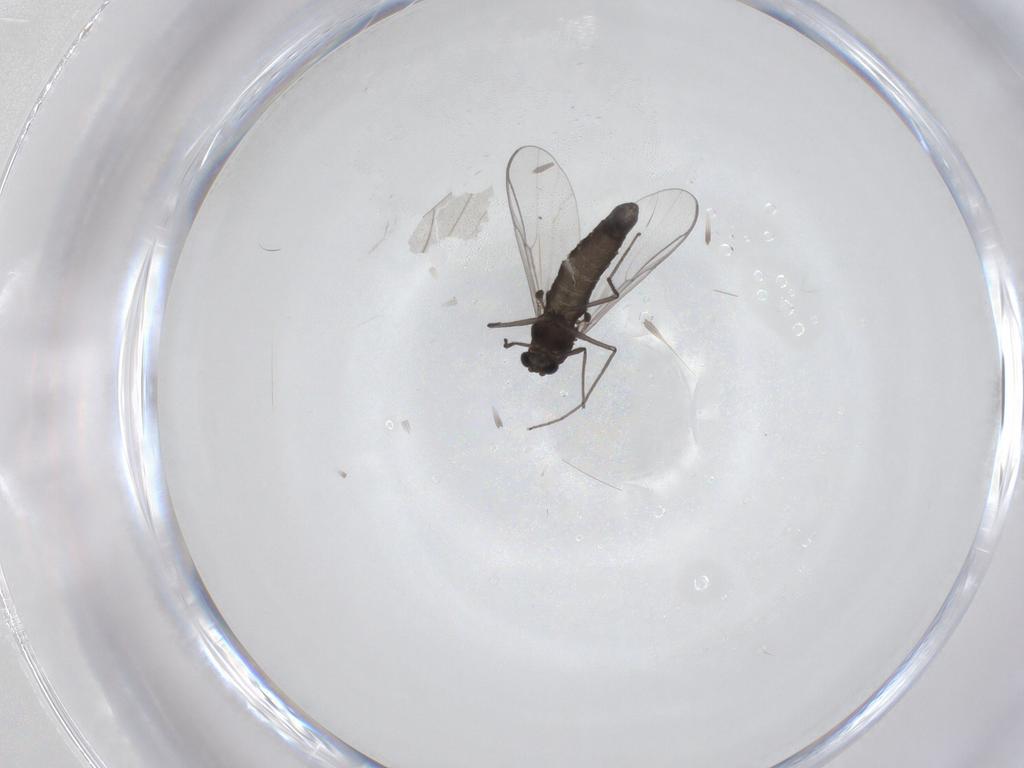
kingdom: Animalia
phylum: Arthropoda
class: Insecta
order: Diptera
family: Chironomidae
